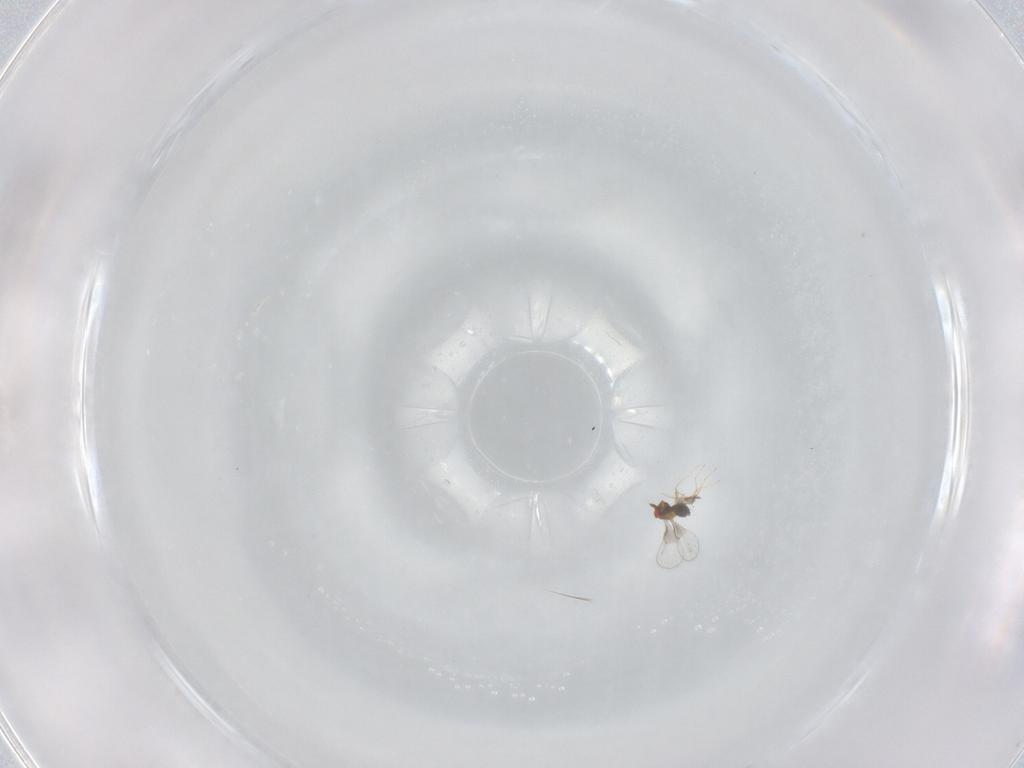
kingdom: Animalia
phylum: Arthropoda
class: Insecta
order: Hymenoptera
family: Trichogrammatidae
